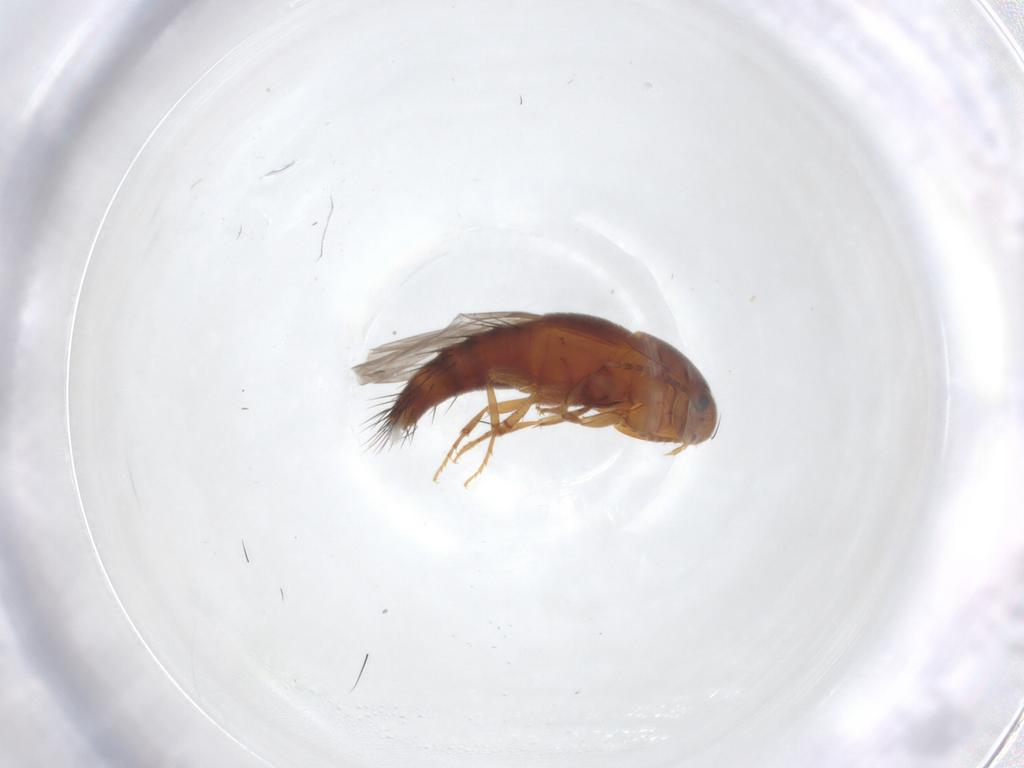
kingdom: Animalia
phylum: Arthropoda
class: Insecta
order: Coleoptera
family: Staphylinidae
